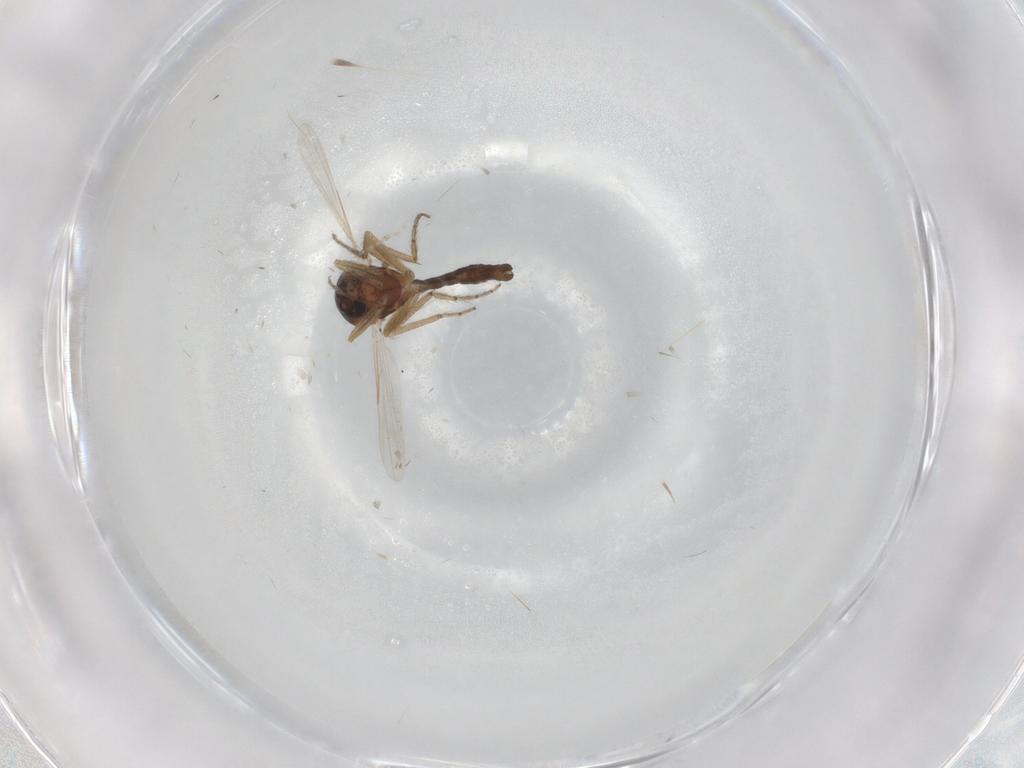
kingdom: Animalia
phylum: Arthropoda
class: Insecta
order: Diptera
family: Ceratopogonidae
